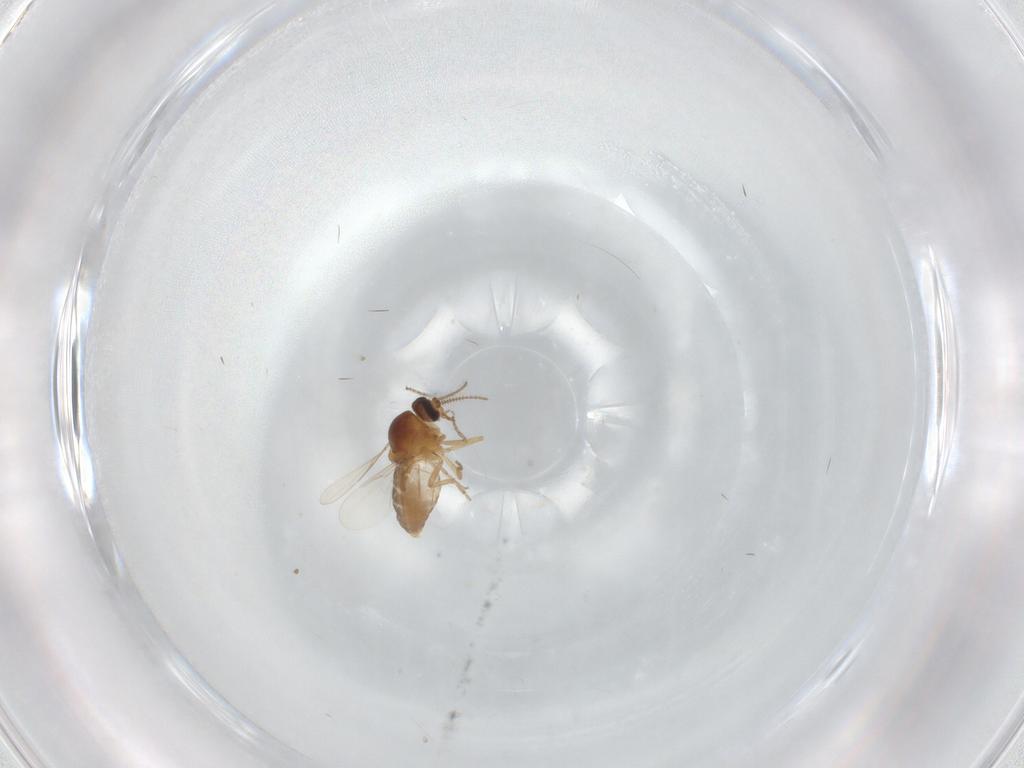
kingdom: Animalia
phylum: Arthropoda
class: Insecta
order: Diptera
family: Ceratopogonidae
